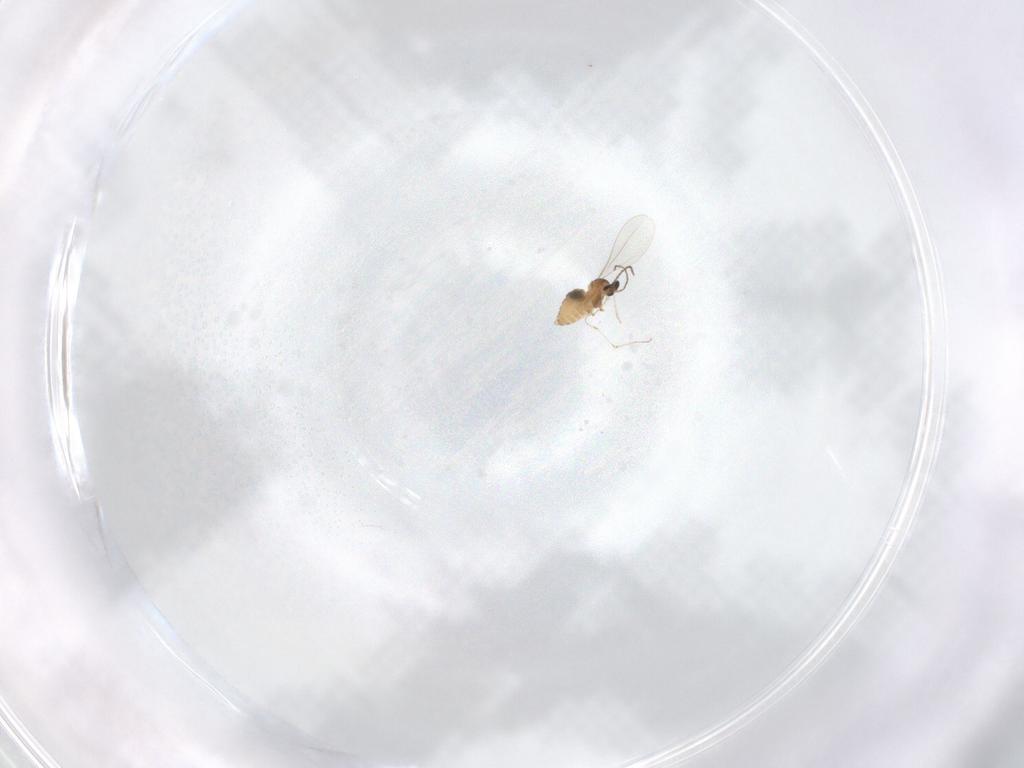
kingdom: Animalia
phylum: Arthropoda
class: Insecta
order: Diptera
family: Cecidomyiidae
